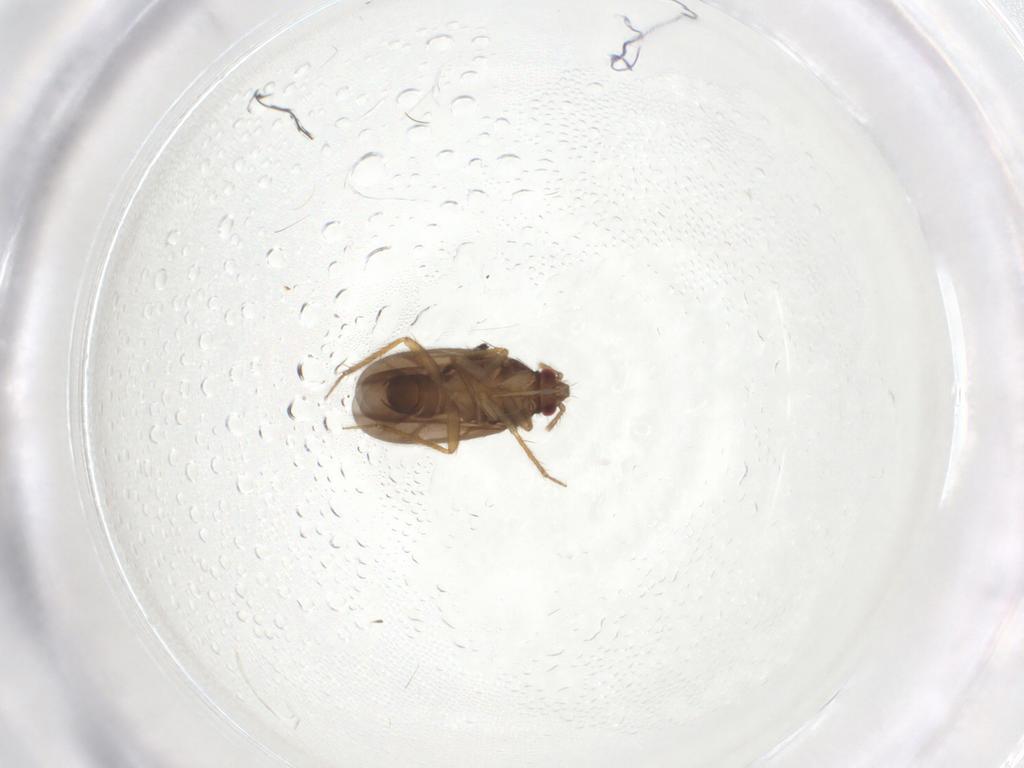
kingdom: Animalia
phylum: Arthropoda
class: Insecta
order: Hemiptera
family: Ceratocombidae
